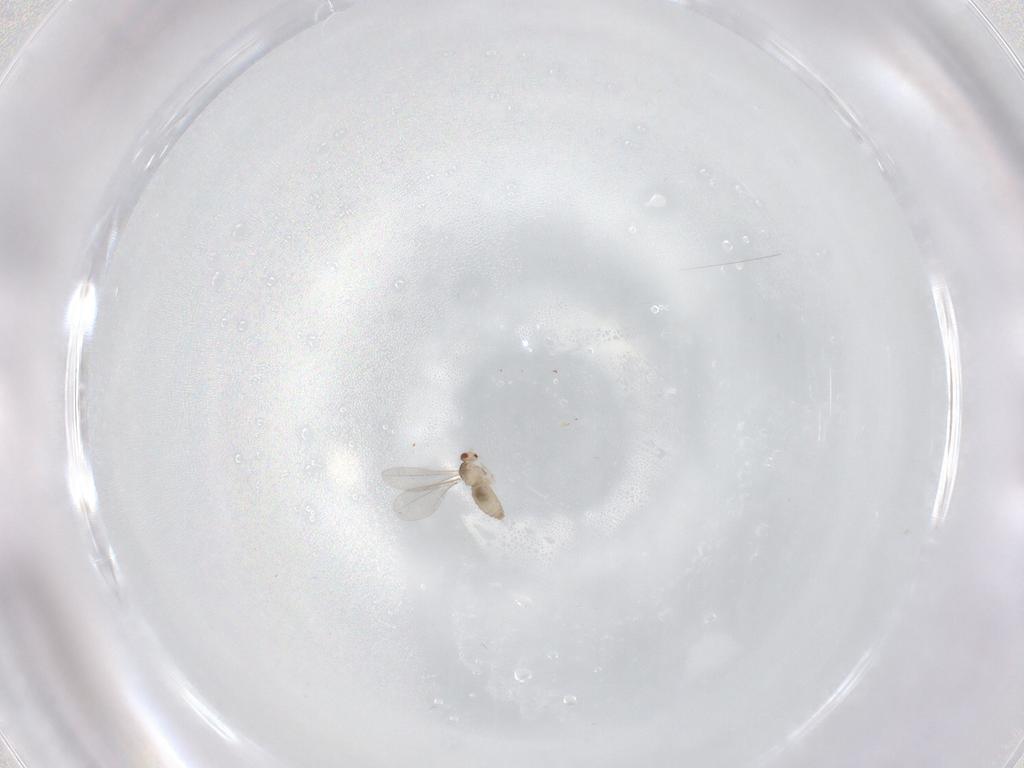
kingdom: Animalia
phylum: Arthropoda
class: Insecta
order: Diptera
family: Cecidomyiidae
